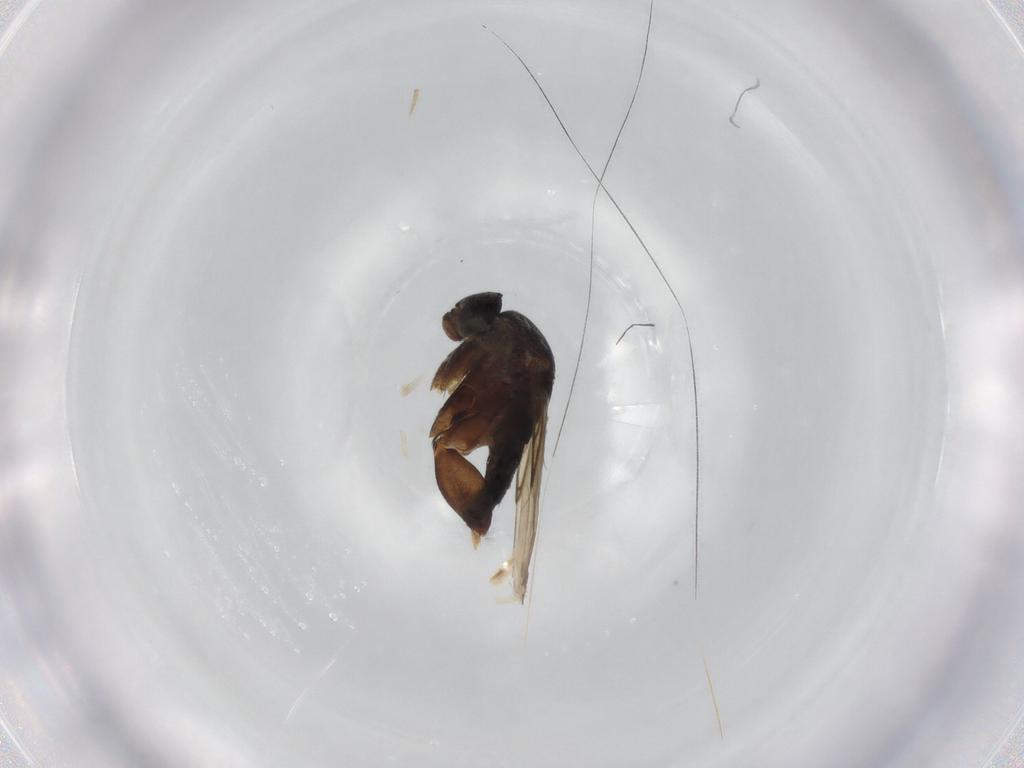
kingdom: Animalia
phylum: Arthropoda
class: Insecta
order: Diptera
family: Phoridae
